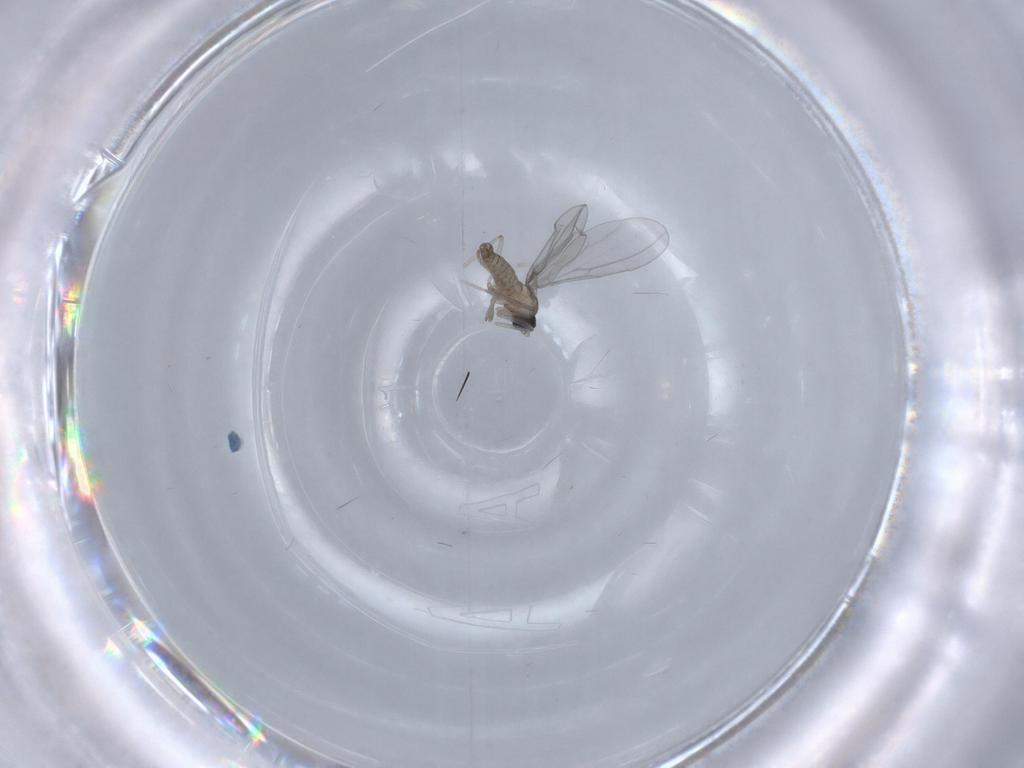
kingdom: Animalia
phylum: Arthropoda
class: Insecta
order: Diptera
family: Cecidomyiidae
